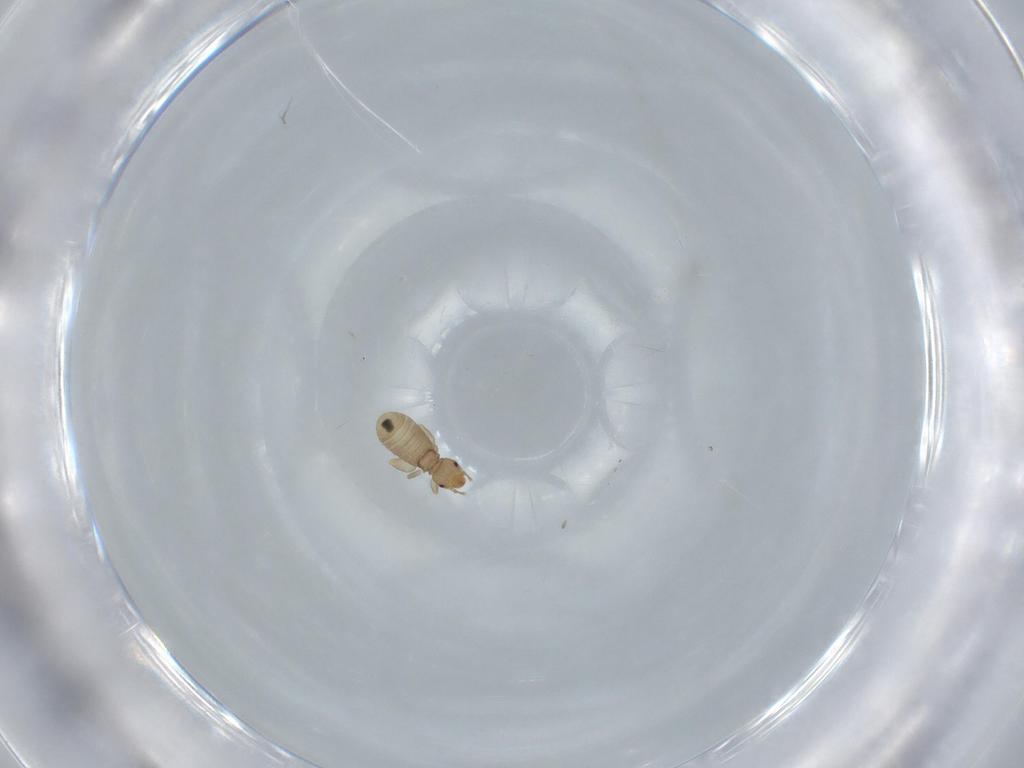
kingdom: Animalia
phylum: Arthropoda
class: Insecta
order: Psocodea
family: Liposcelididae
